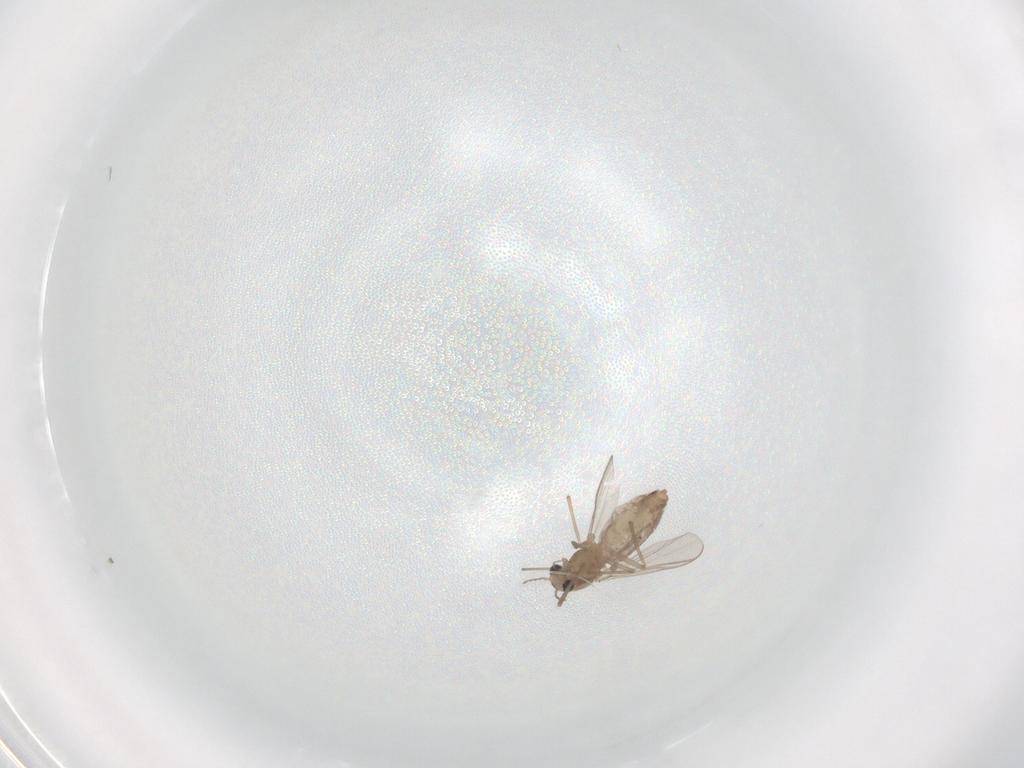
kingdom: Animalia
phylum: Arthropoda
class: Insecta
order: Diptera
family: Chironomidae
